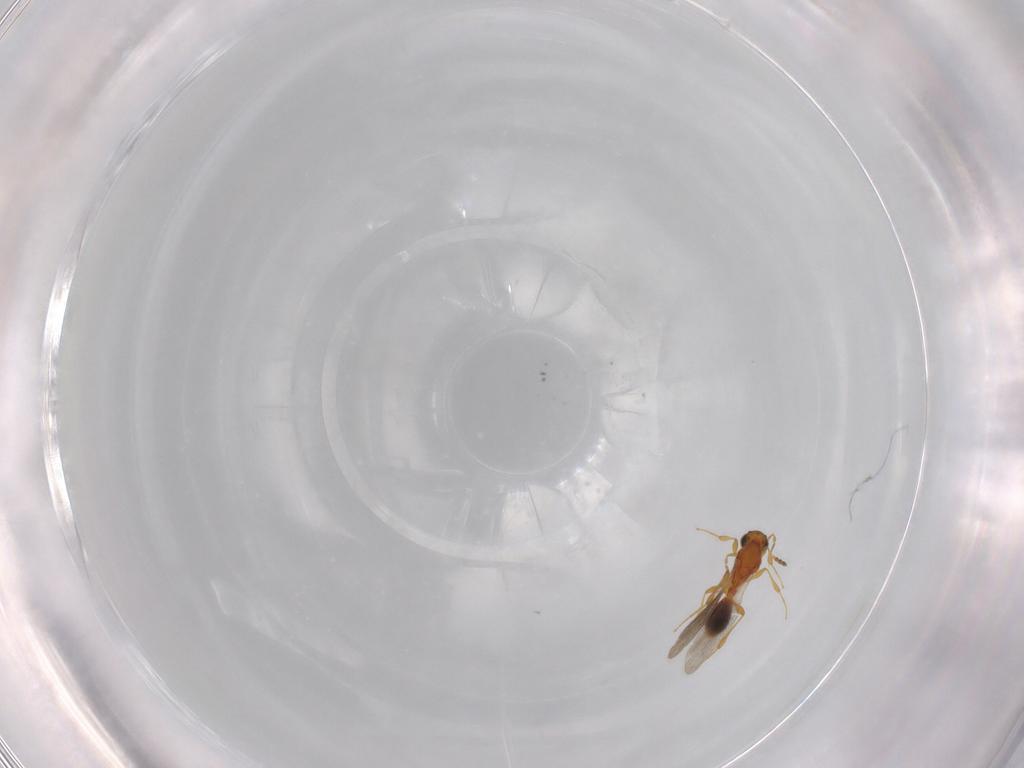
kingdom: Animalia
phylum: Arthropoda
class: Insecta
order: Hymenoptera
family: Platygastridae
